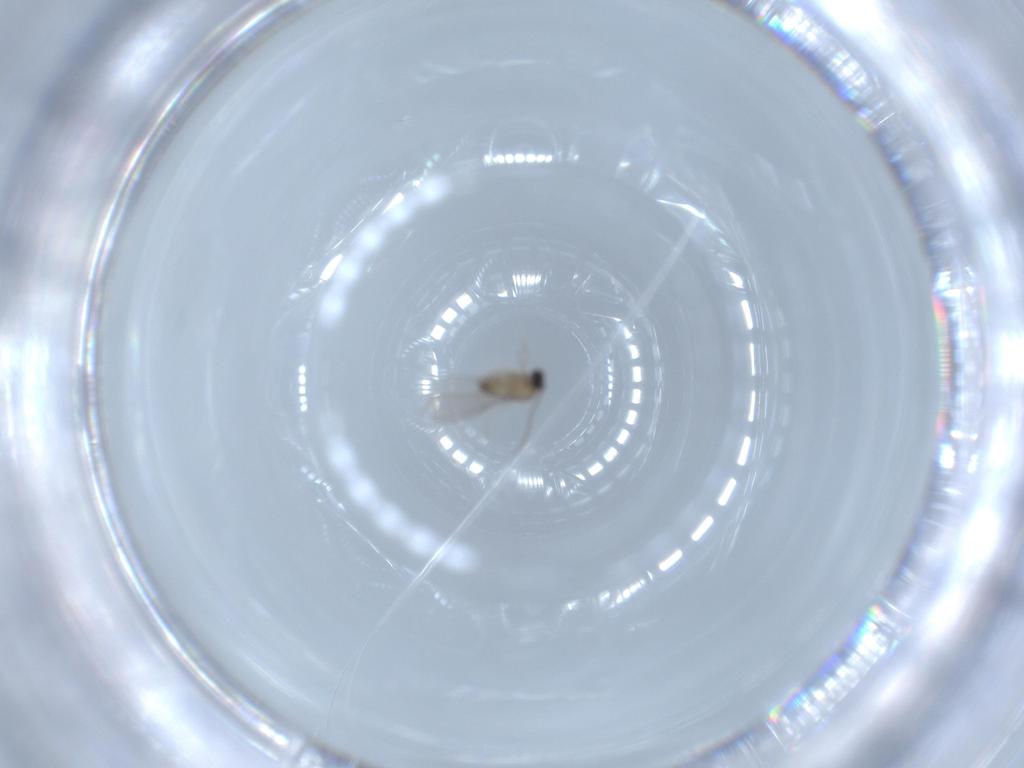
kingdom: Animalia
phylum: Arthropoda
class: Insecta
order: Diptera
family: Cecidomyiidae
